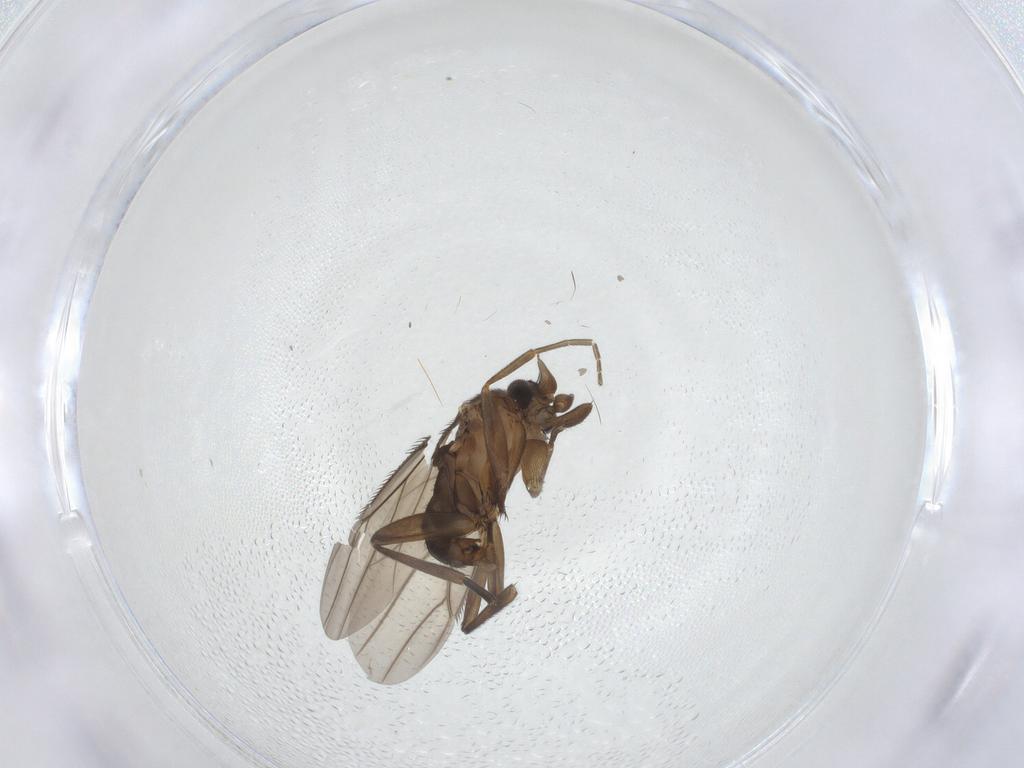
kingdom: Animalia
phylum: Arthropoda
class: Insecta
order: Diptera
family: Phoridae
